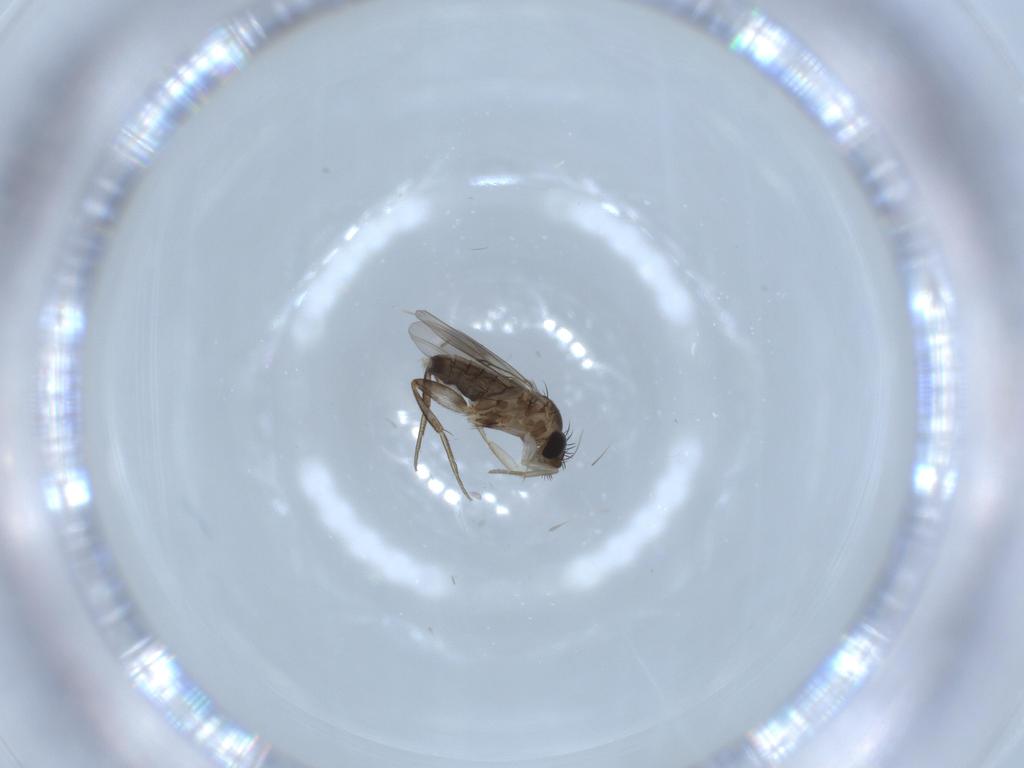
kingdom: Animalia
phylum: Arthropoda
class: Insecta
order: Diptera
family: Phoridae
